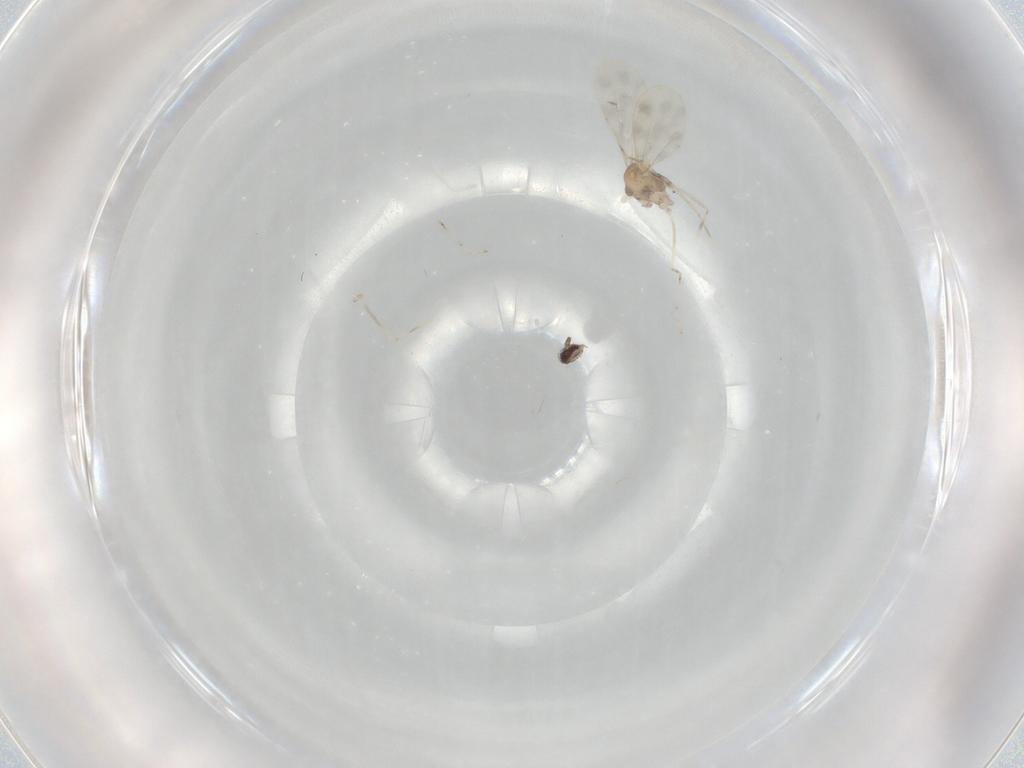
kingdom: Animalia
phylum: Arthropoda
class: Insecta
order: Diptera
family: Cecidomyiidae
